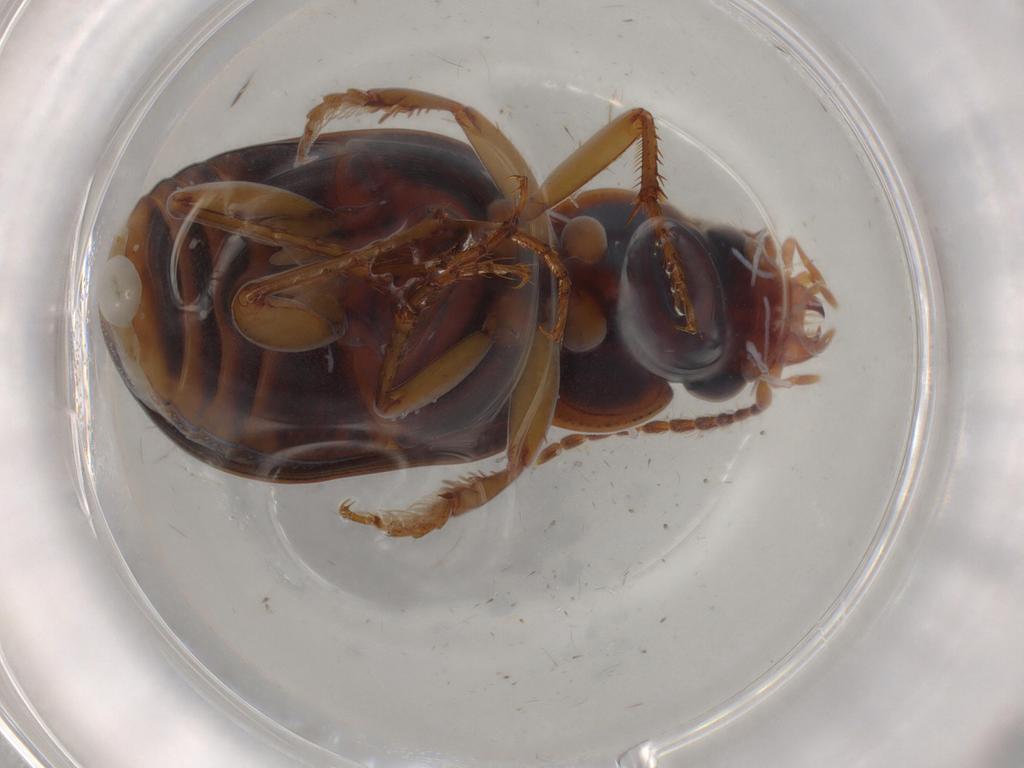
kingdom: Animalia
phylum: Arthropoda
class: Insecta
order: Coleoptera
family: Carabidae
